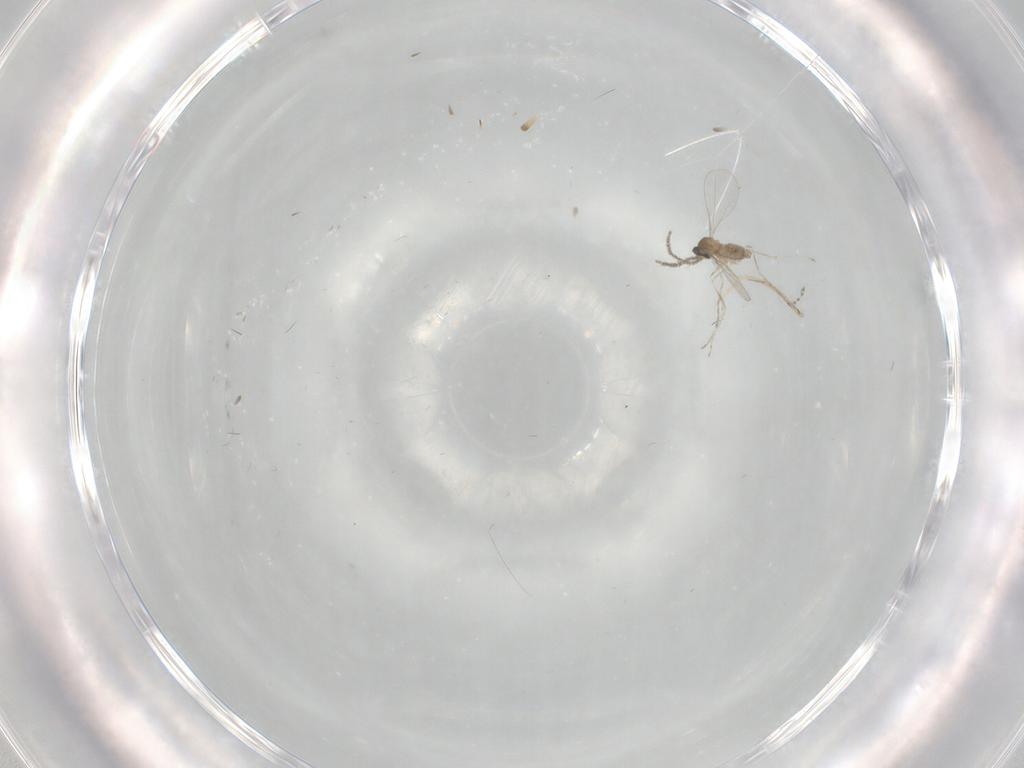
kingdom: Animalia
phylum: Arthropoda
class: Insecta
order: Diptera
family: Cecidomyiidae
